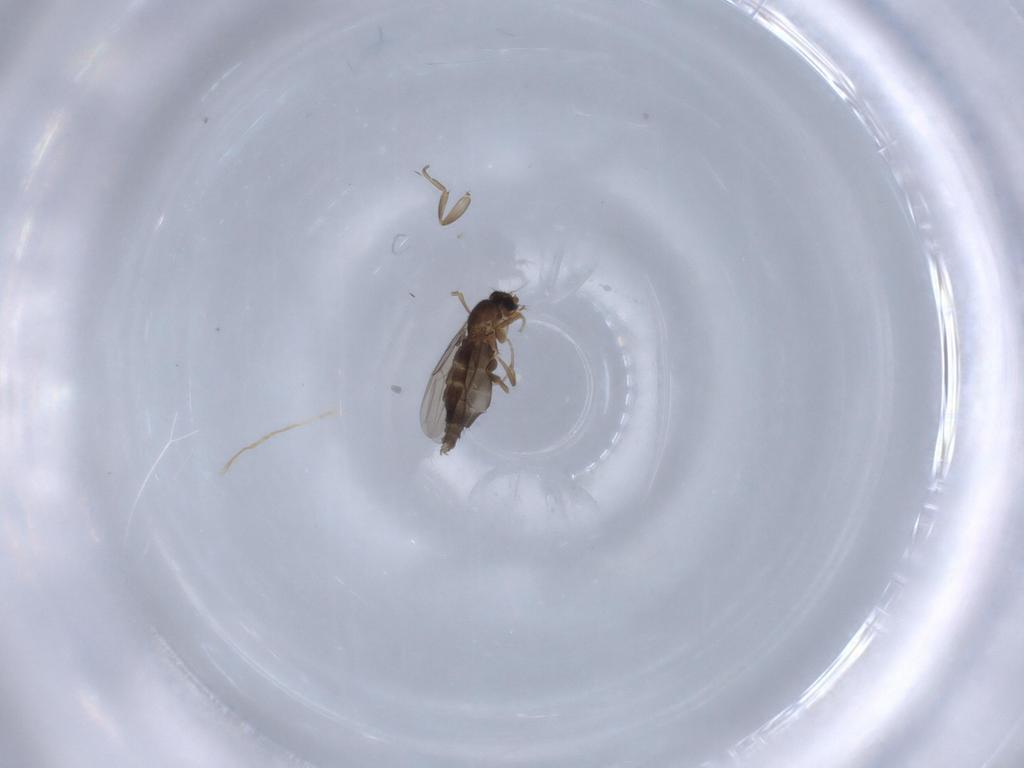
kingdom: Animalia
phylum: Arthropoda
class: Insecta
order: Diptera
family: Phoridae
